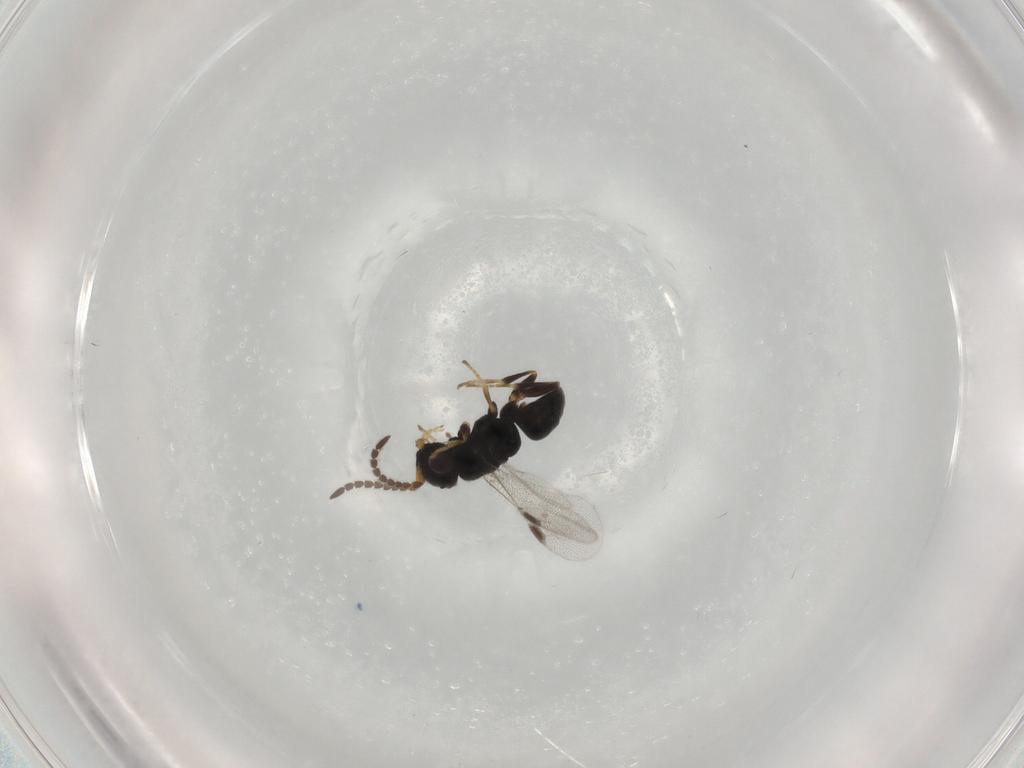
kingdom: Animalia
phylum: Arthropoda
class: Insecta
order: Hymenoptera
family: Dryinidae
